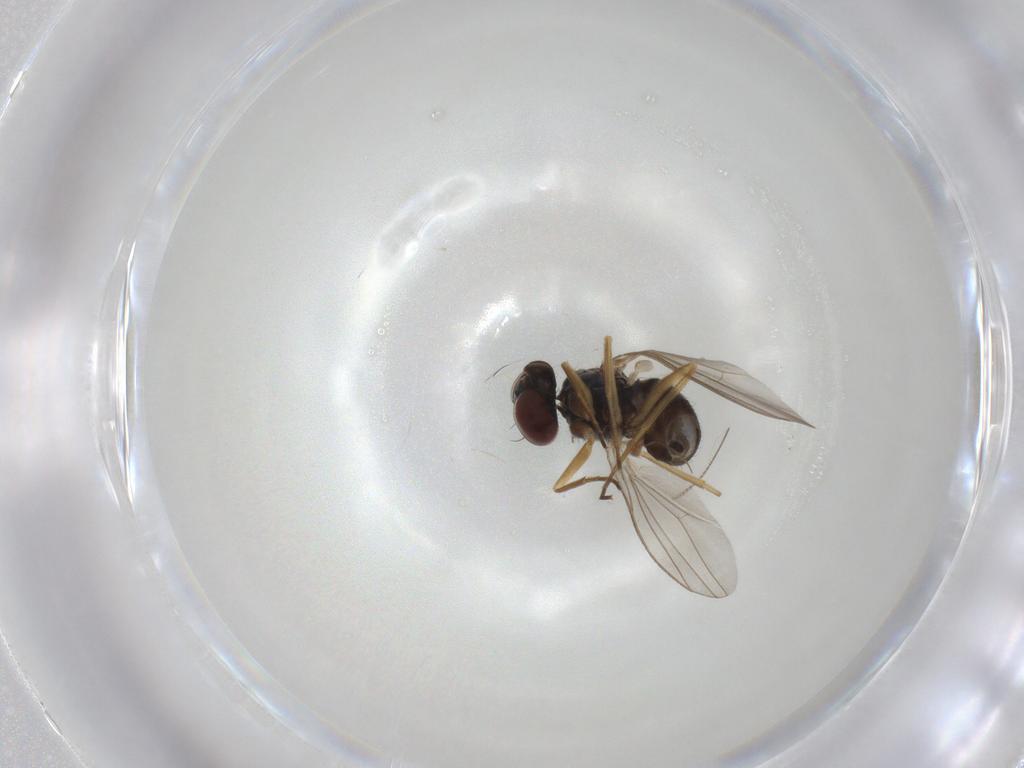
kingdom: Animalia
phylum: Arthropoda
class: Insecta
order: Diptera
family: Dolichopodidae
